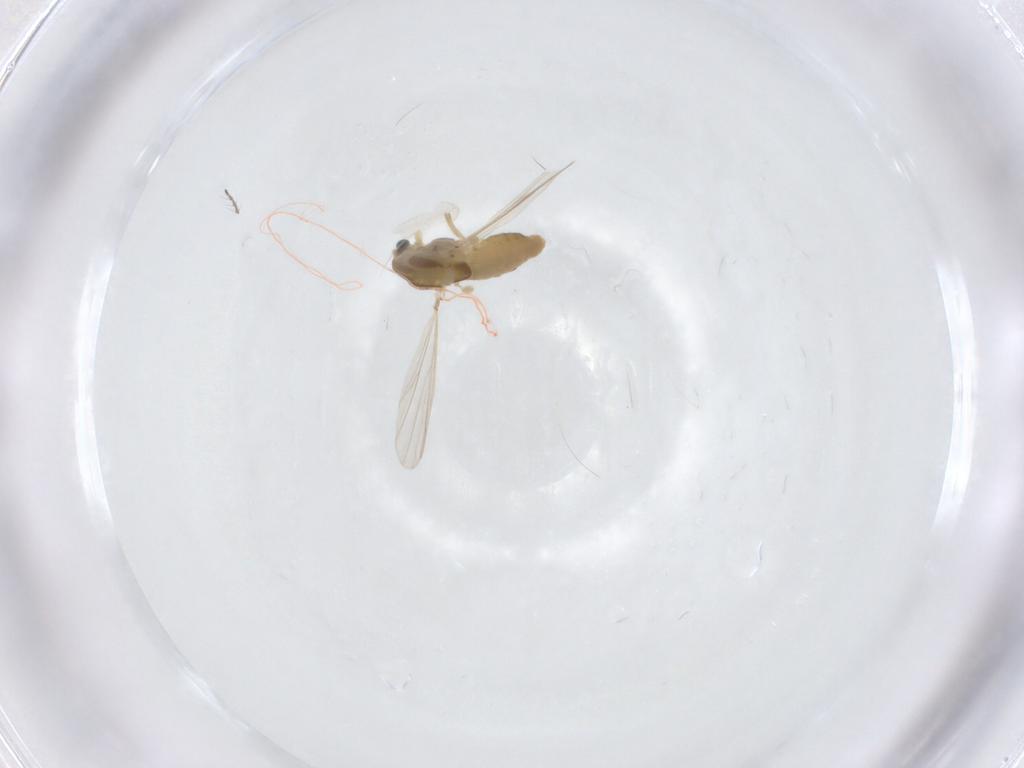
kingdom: Animalia
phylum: Arthropoda
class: Insecta
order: Diptera
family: Chironomidae
